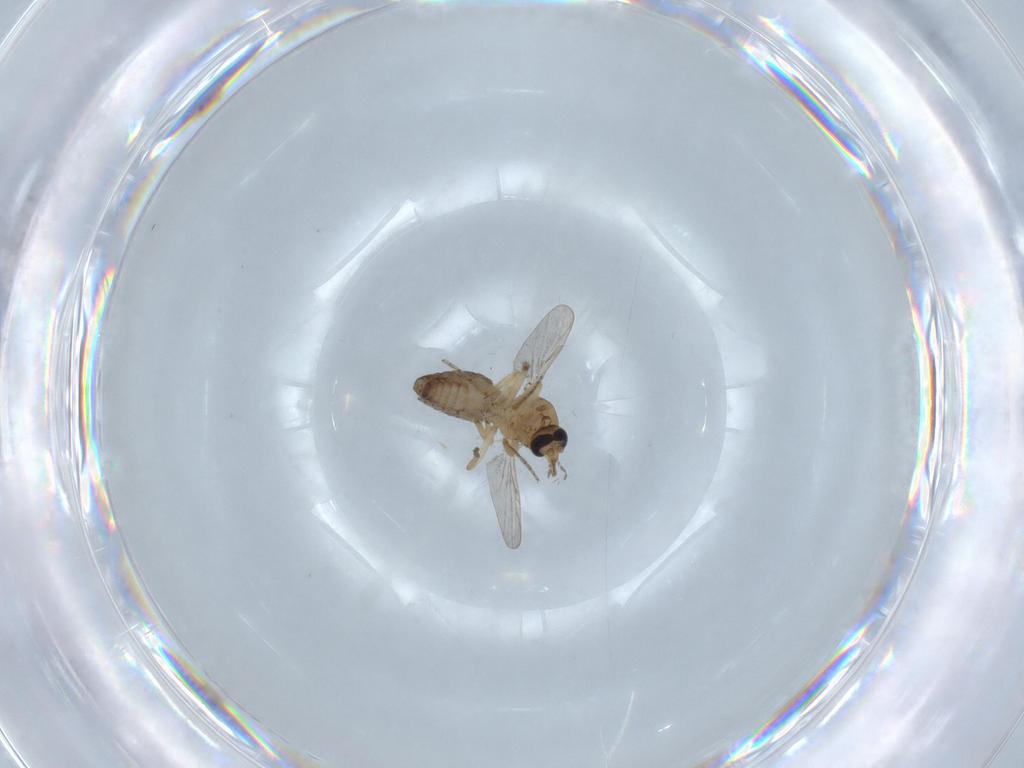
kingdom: Animalia
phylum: Arthropoda
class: Insecta
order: Diptera
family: Ceratopogonidae
